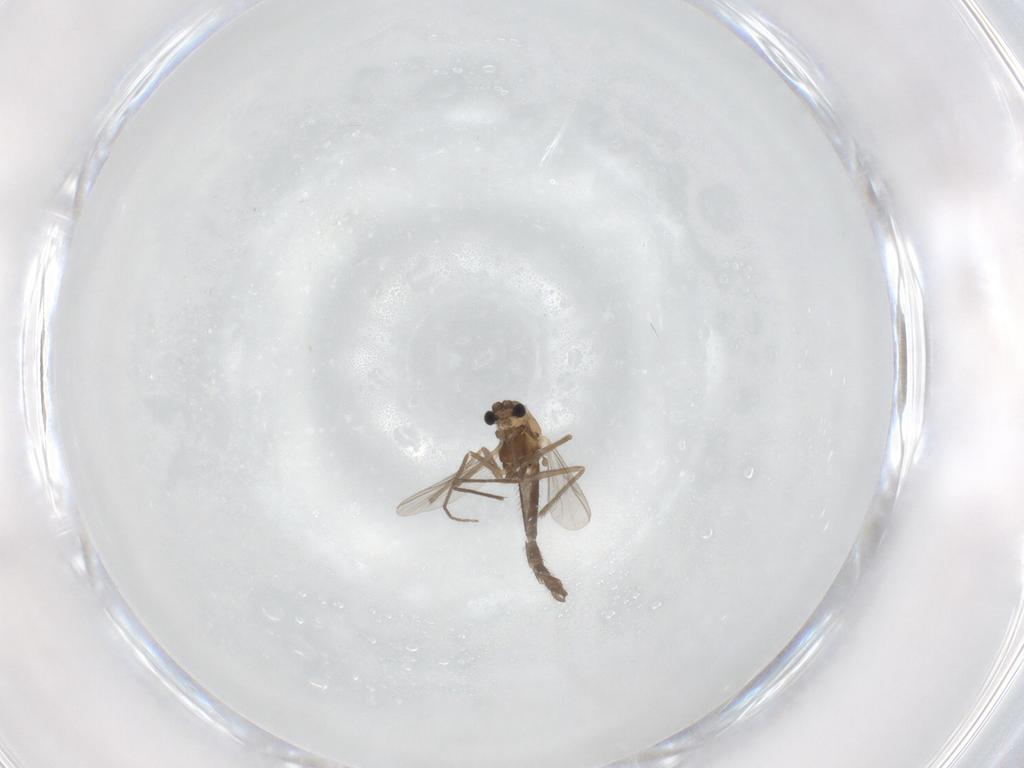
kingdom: Animalia
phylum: Arthropoda
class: Insecta
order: Diptera
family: Chironomidae
